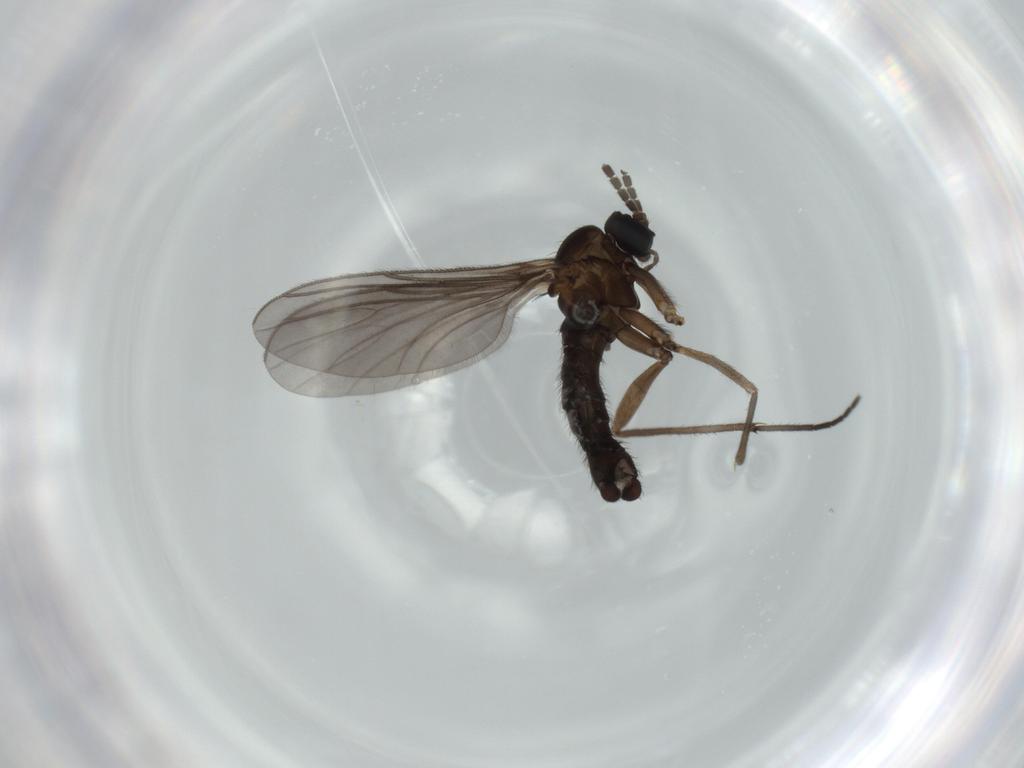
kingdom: Animalia
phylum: Arthropoda
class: Insecta
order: Diptera
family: Sciaridae
